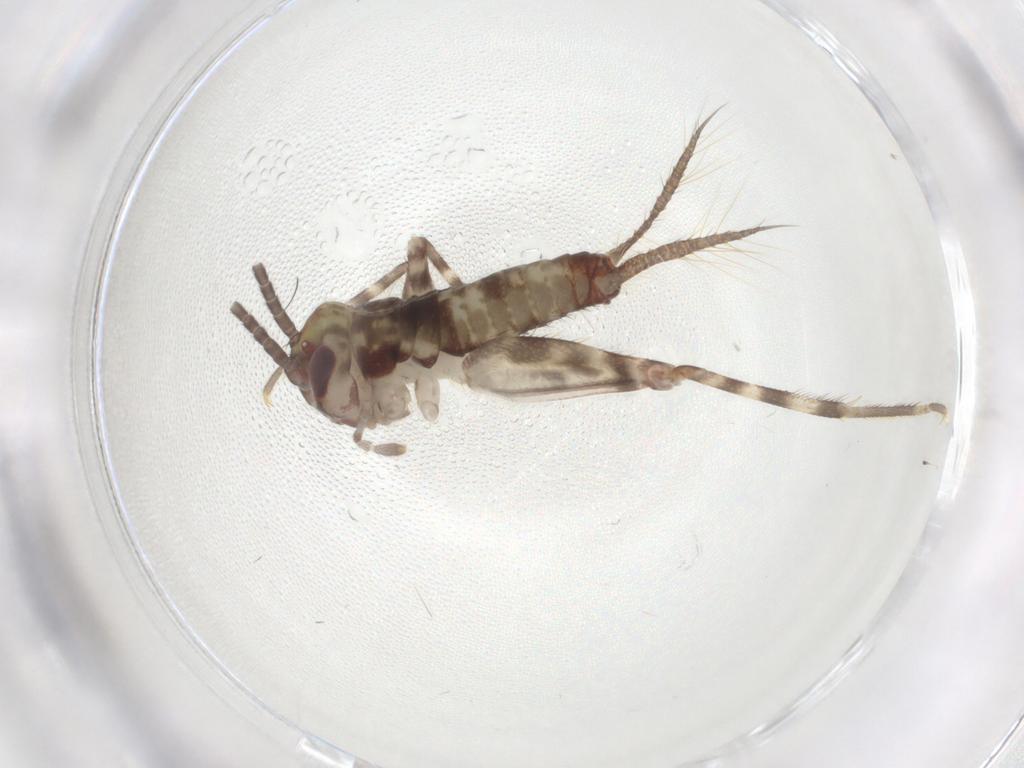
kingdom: Animalia
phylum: Arthropoda
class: Insecta
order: Orthoptera
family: Gryllidae
